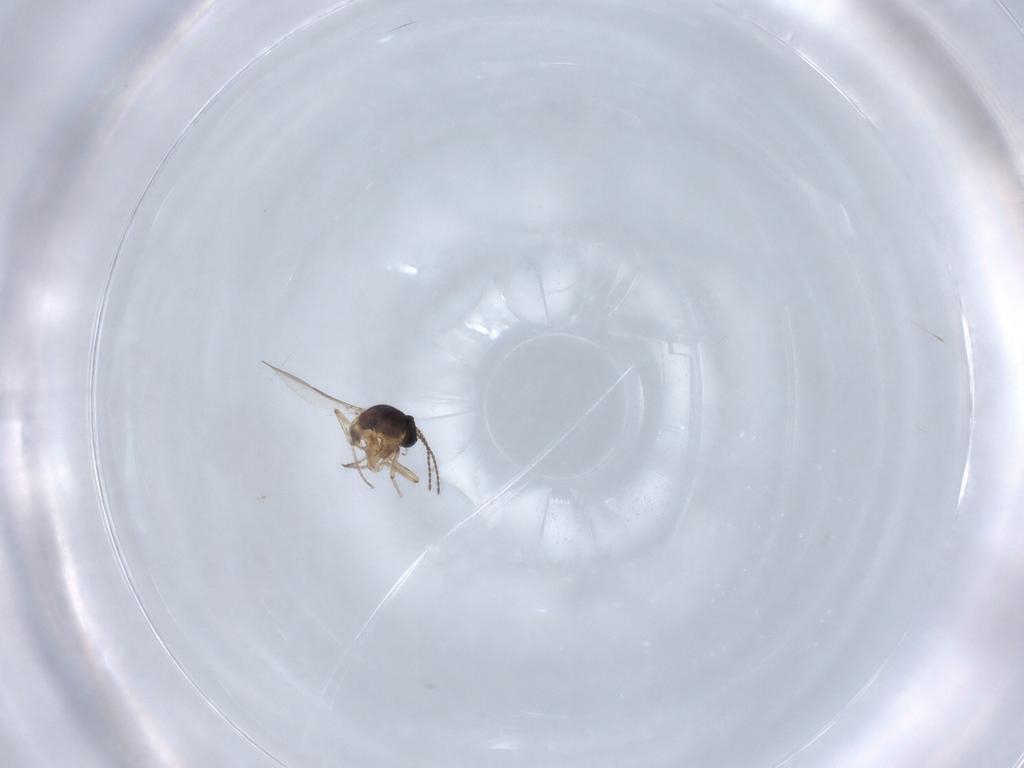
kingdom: Animalia
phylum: Arthropoda
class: Insecta
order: Diptera
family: Ceratopogonidae
